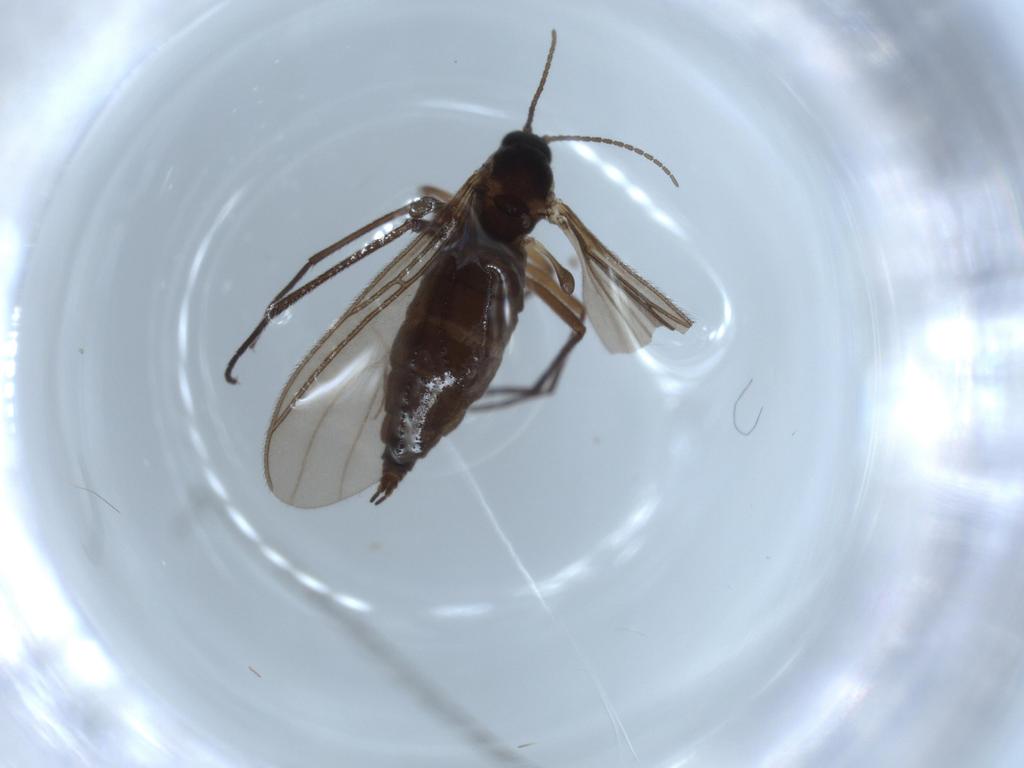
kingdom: Animalia
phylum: Arthropoda
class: Insecta
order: Diptera
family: Sciaridae
